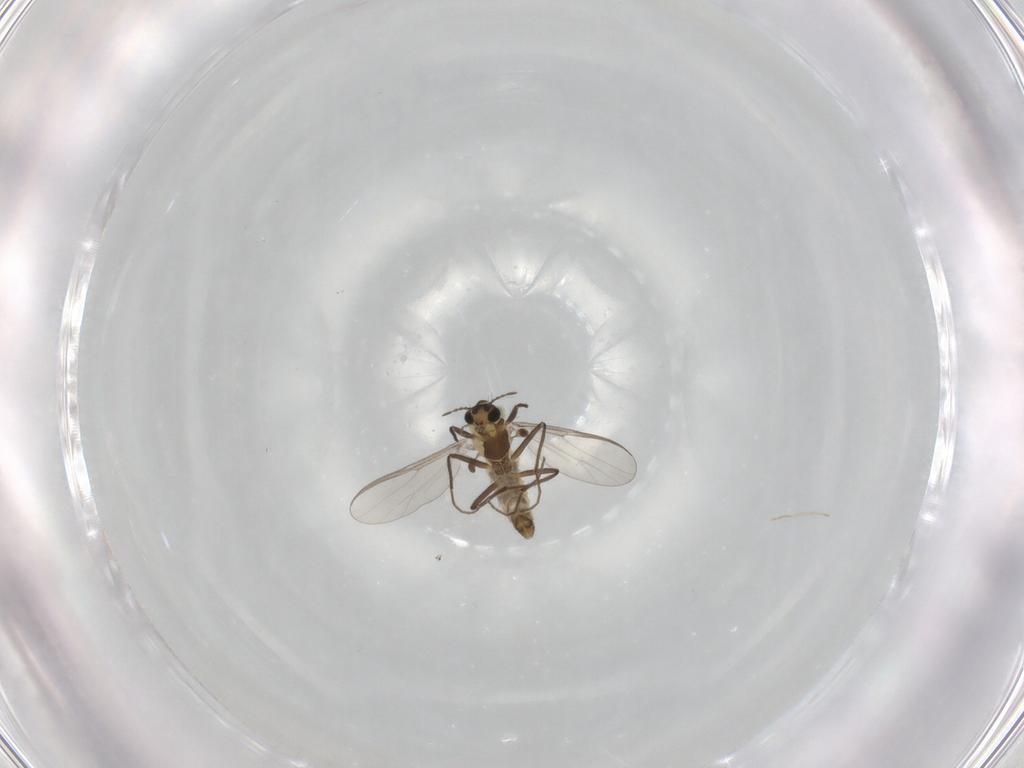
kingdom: Animalia
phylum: Arthropoda
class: Insecta
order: Diptera
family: Chironomidae
